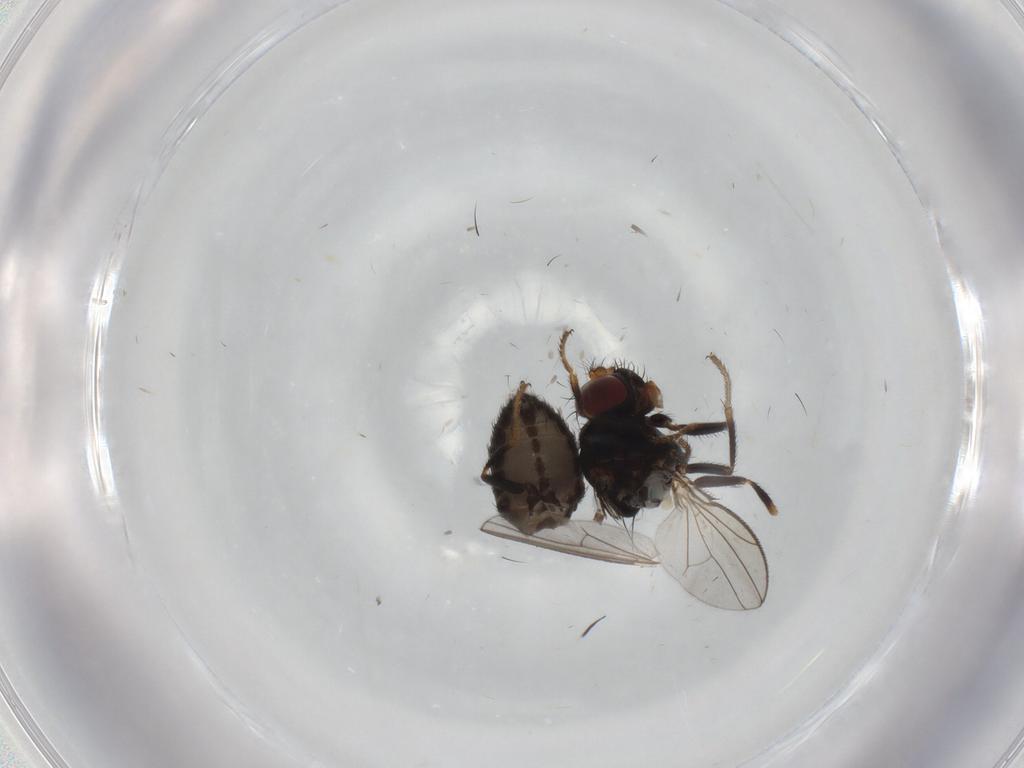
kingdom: Animalia
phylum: Arthropoda
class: Insecta
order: Diptera
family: Ephydridae
